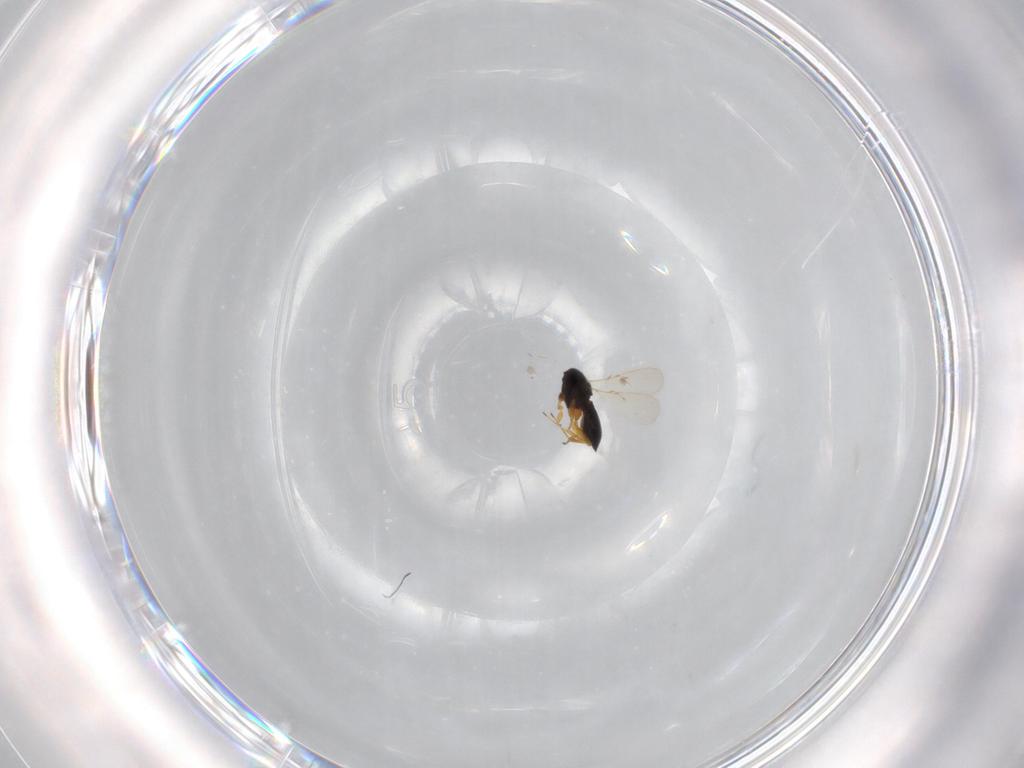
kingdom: Animalia
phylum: Arthropoda
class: Insecta
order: Hymenoptera
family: Scelionidae
